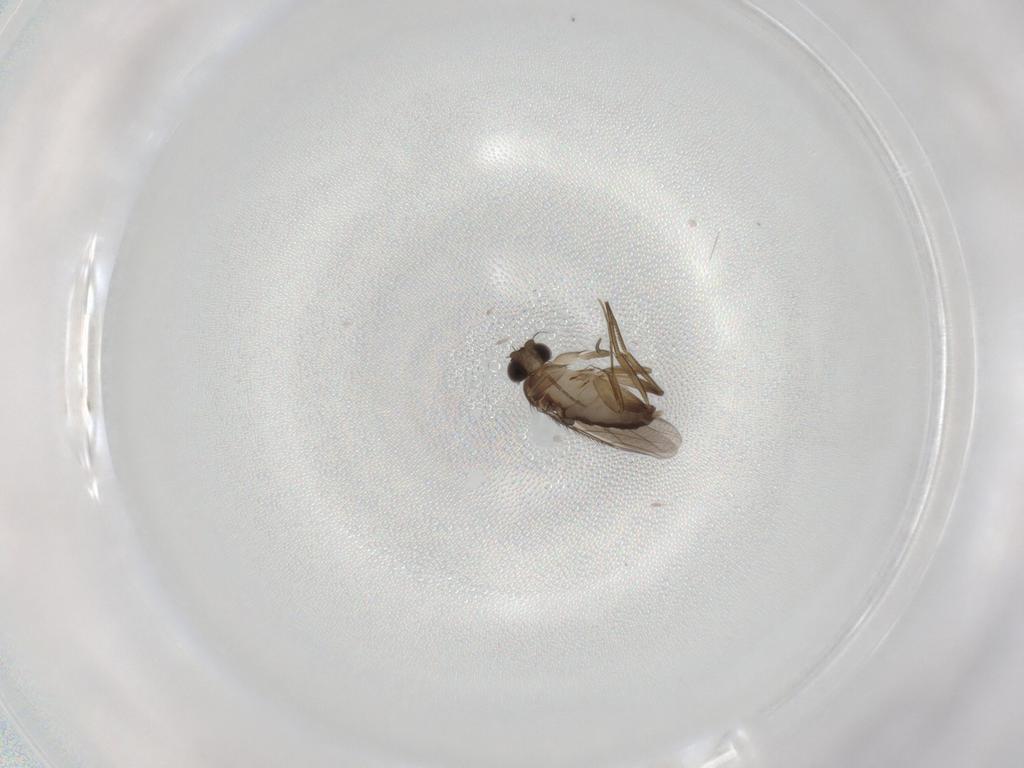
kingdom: Animalia
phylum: Arthropoda
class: Insecta
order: Diptera
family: Phoridae
